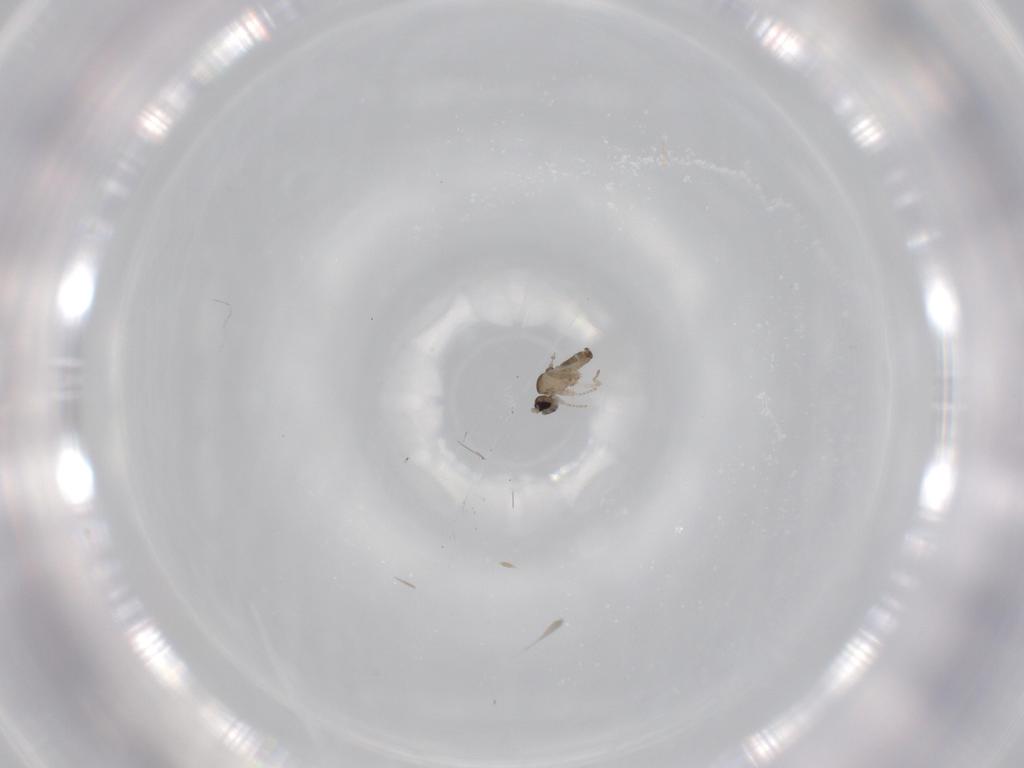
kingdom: Animalia
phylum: Arthropoda
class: Insecta
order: Diptera
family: Cecidomyiidae
